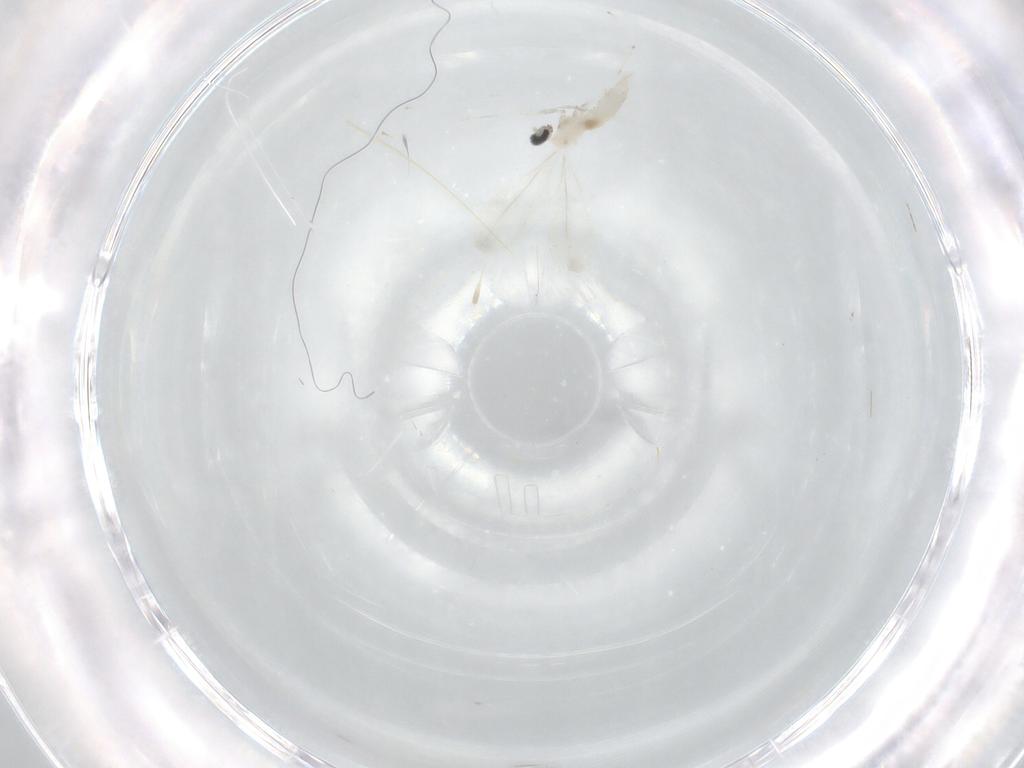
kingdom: Animalia
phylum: Arthropoda
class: Insecta
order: Diptera
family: Cecidomyiidae
